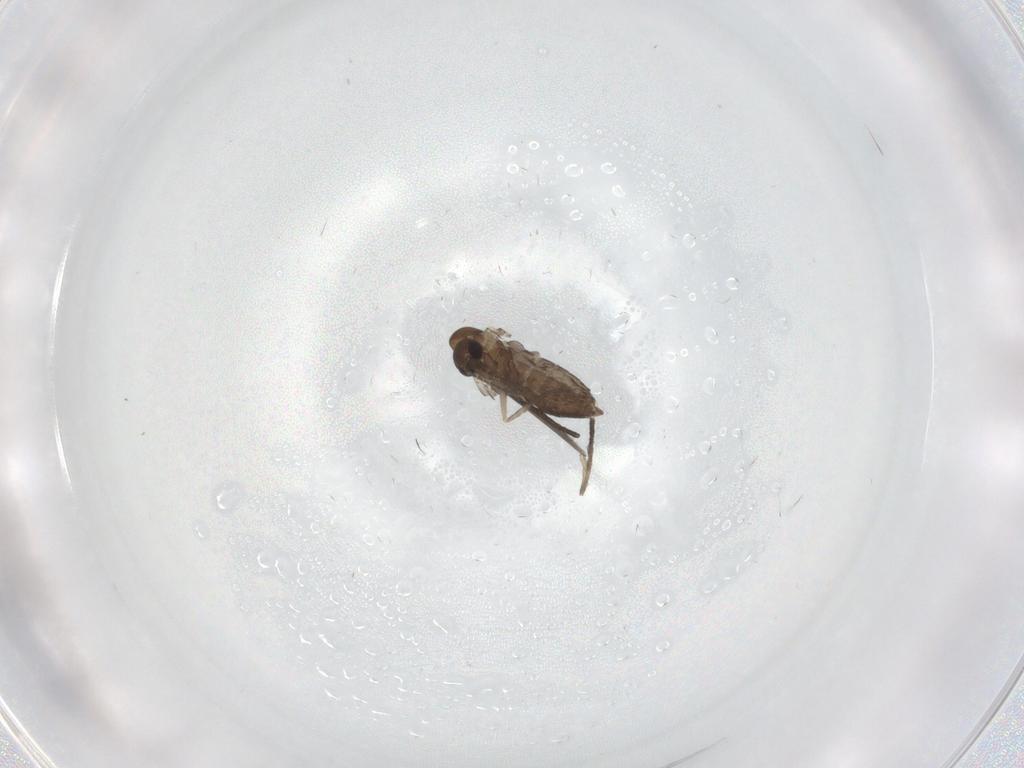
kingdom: Animalia
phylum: Arthropoda
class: Insecta
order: Diptera
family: Psychodidae
